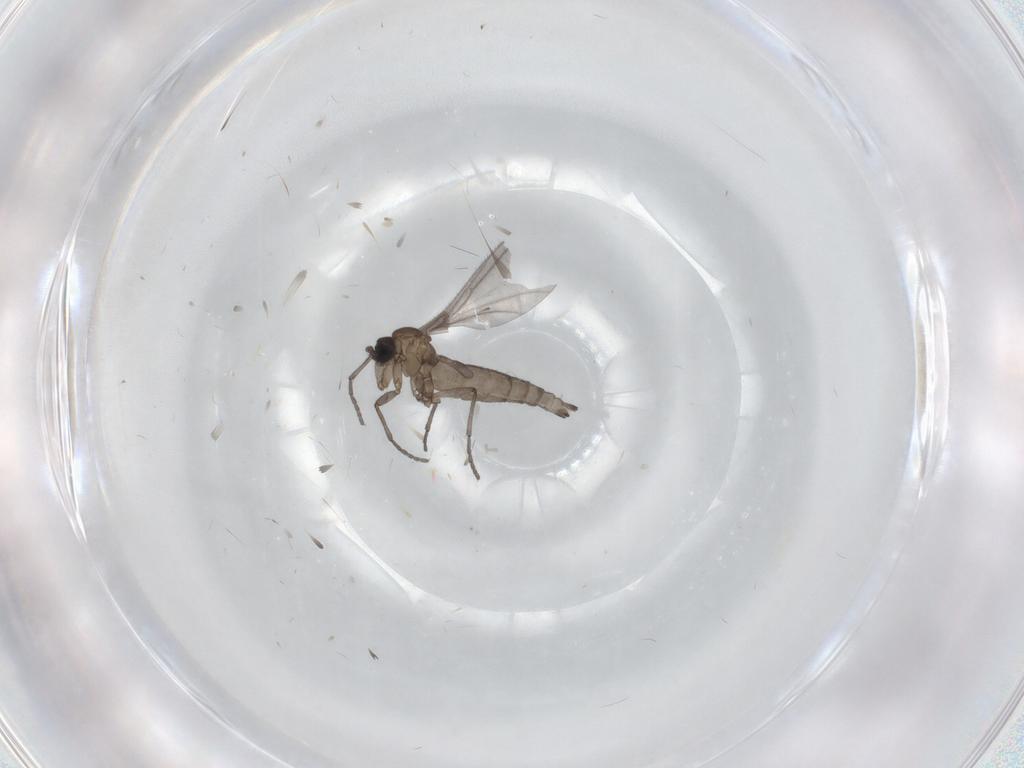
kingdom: Animalia
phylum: Arthropoda
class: Insecta
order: Diptera
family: Sciaridae
